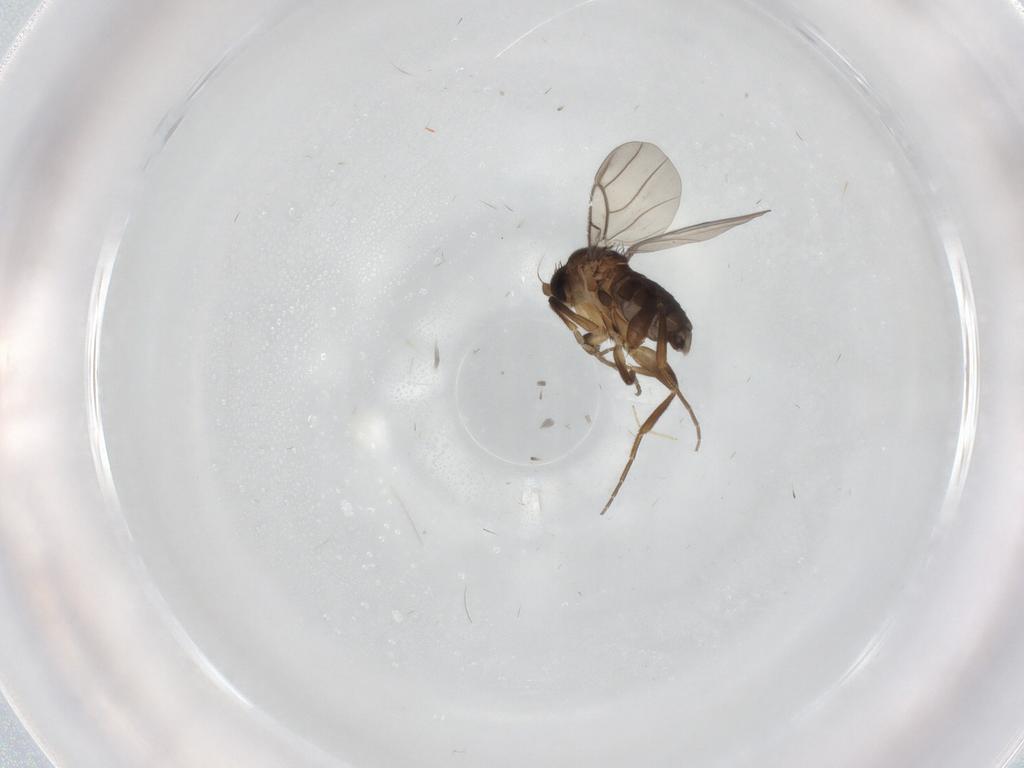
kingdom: Animalia
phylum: Arthropoda
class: Insecta
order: Diptera
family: Phoridae
